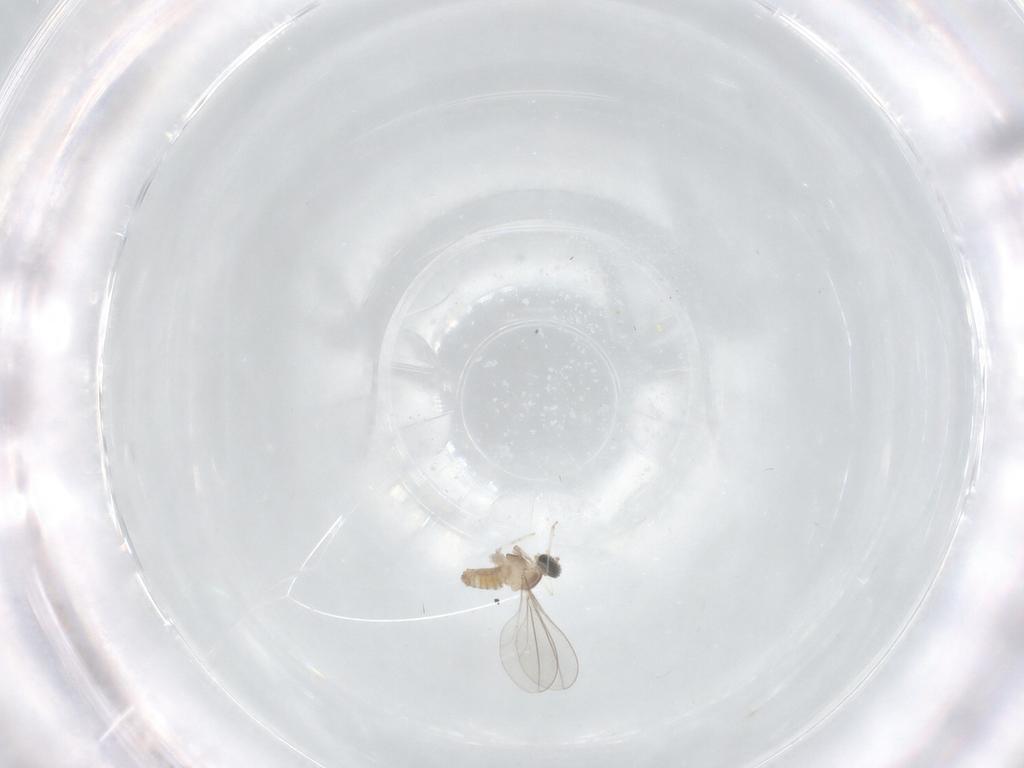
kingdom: Animalia
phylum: Arthropoda
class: Insecta
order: Diptera
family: Cecidomyiidae
